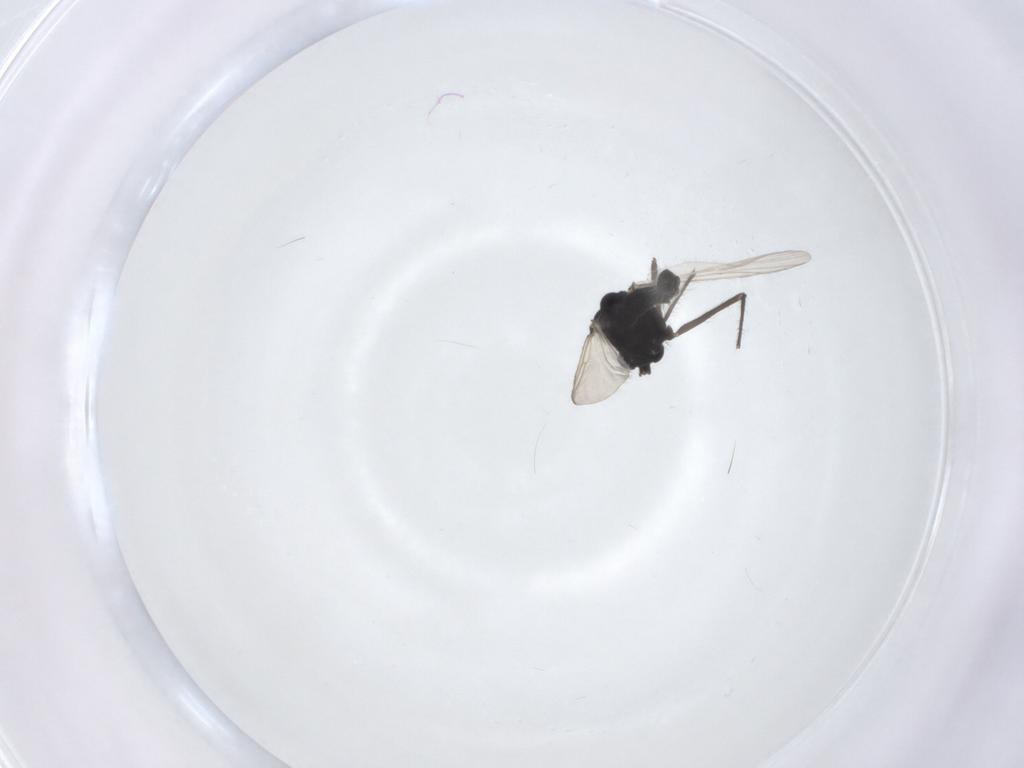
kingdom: Animalia
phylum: Arthropoda
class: Insecta
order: Diptera
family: Chironomidae
